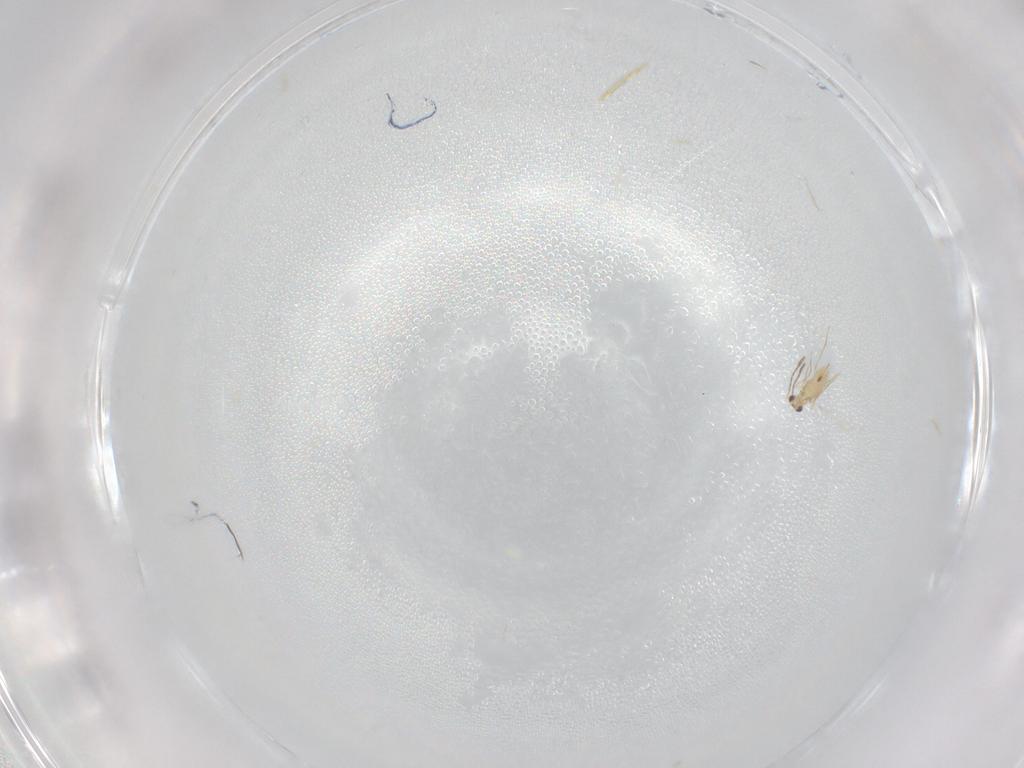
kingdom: Animalia
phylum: Arthropoda
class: Insecta
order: Hymenoptera
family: Mymaridae
